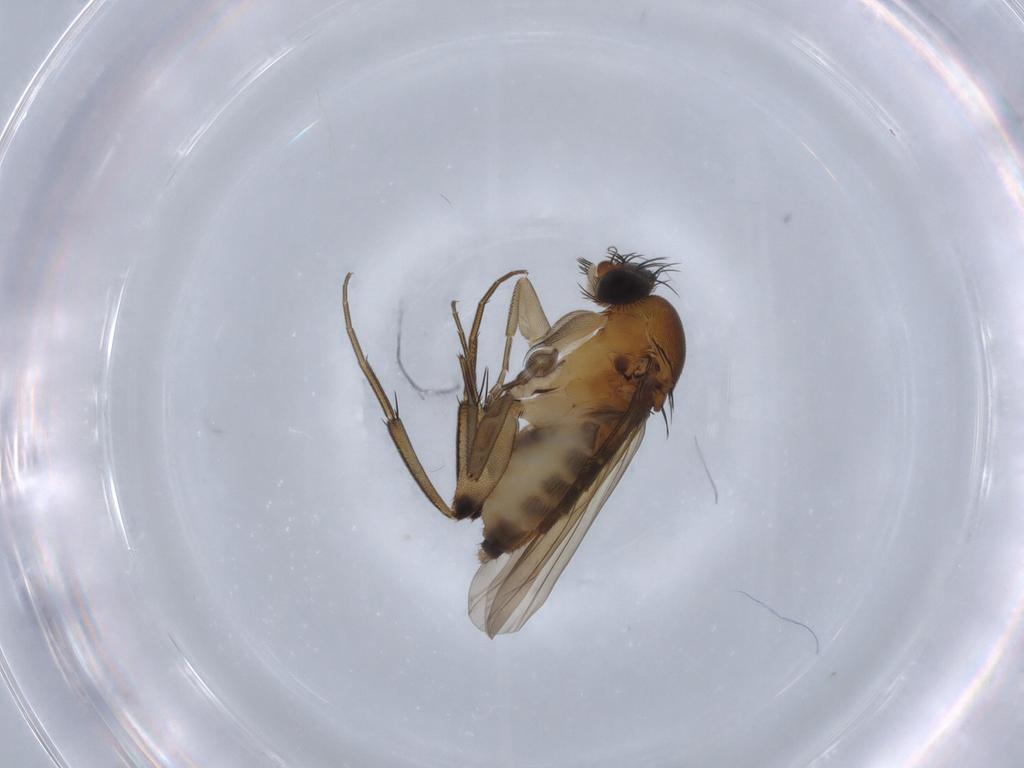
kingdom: Animalia
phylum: Arthropoda
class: Insecta
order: Diptera
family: Phoridae
